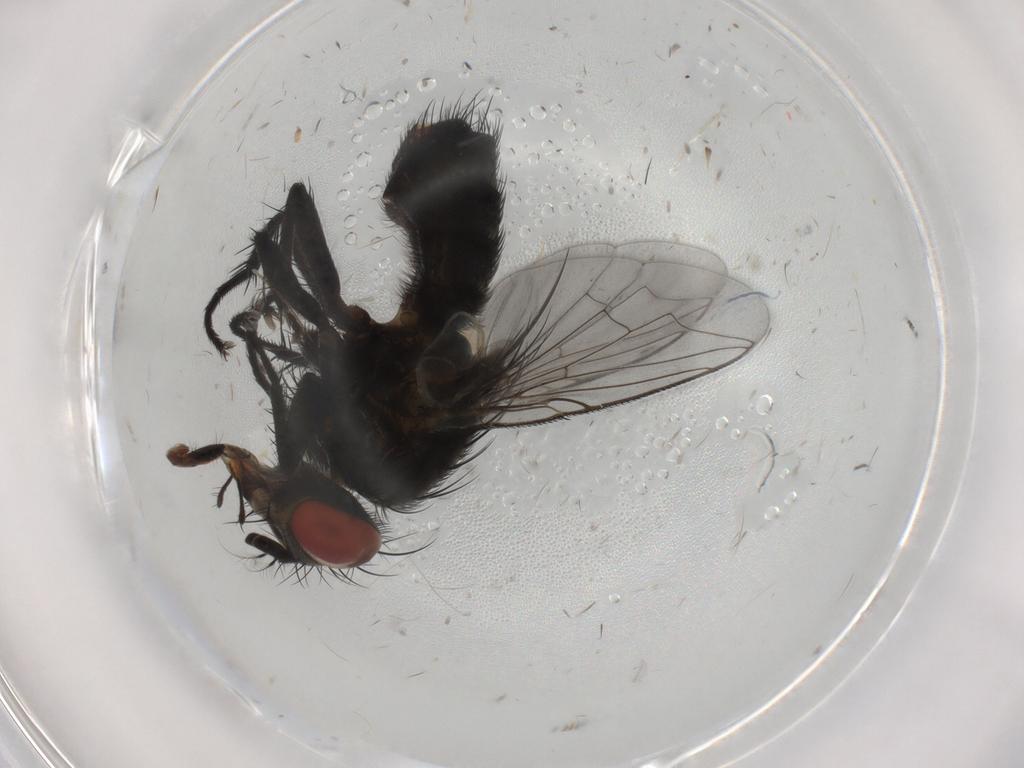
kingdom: Animalia
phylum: Arthropoda
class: Insecta
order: Diptera
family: Sarcophagidae
